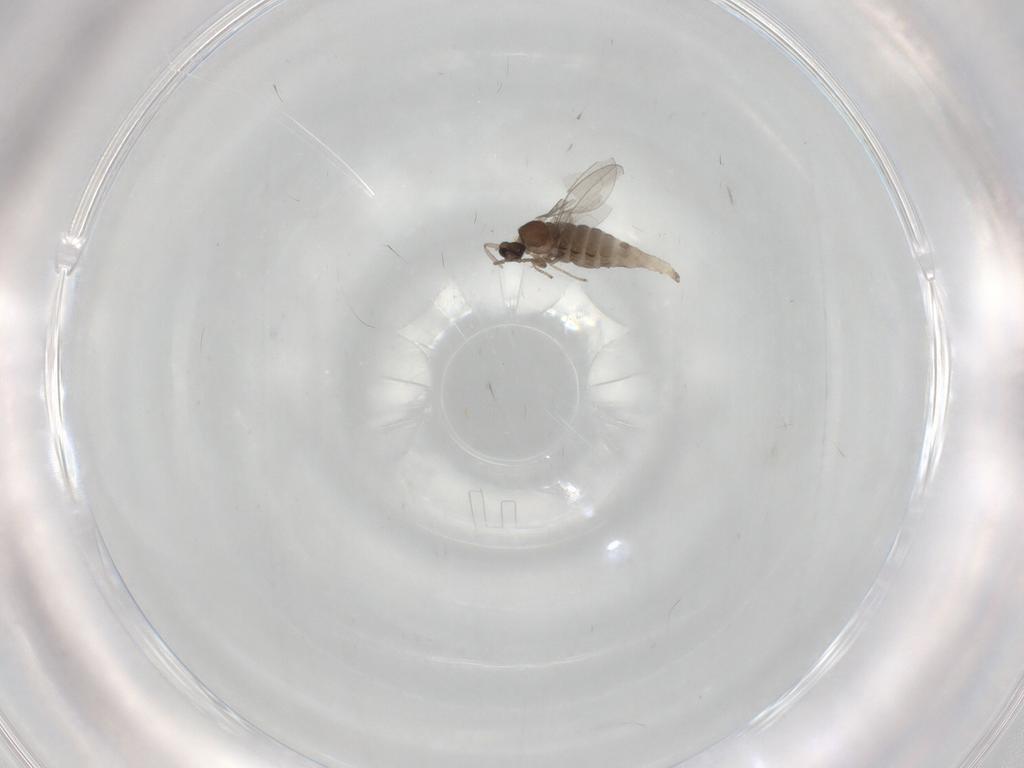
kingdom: Animalia
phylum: Arthropoda
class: Insecta
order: Diptera
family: Cecidomyiidae
